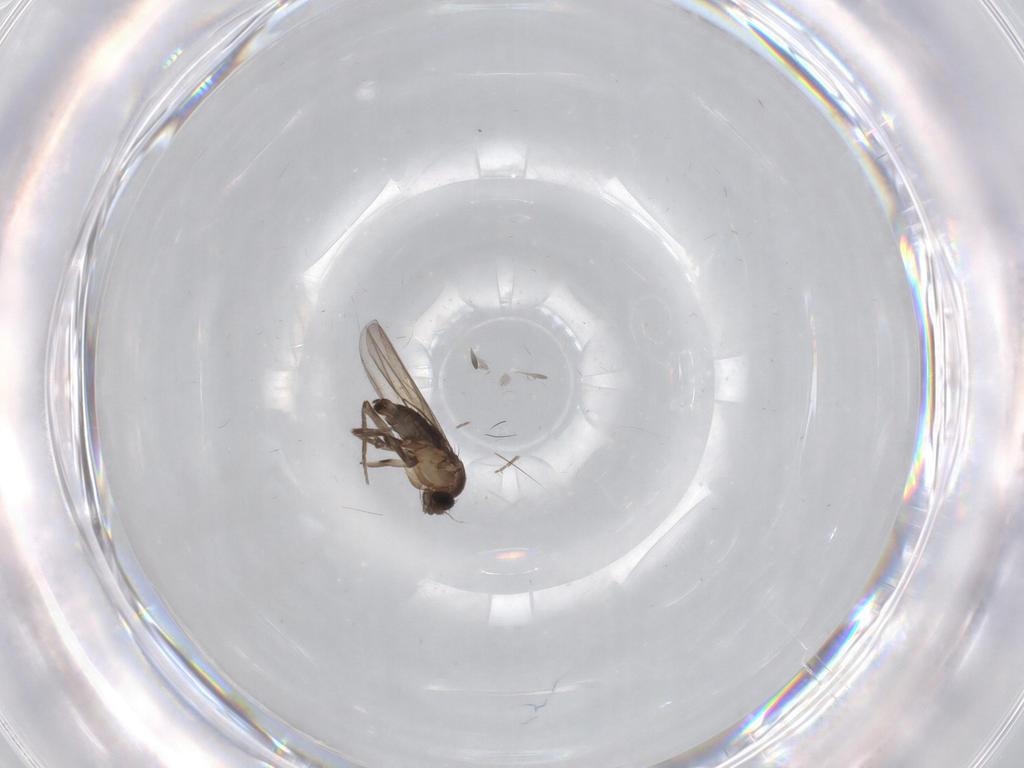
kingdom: Animalia
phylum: Arthropoda
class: Insecta
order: Diptera
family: Phoridae
